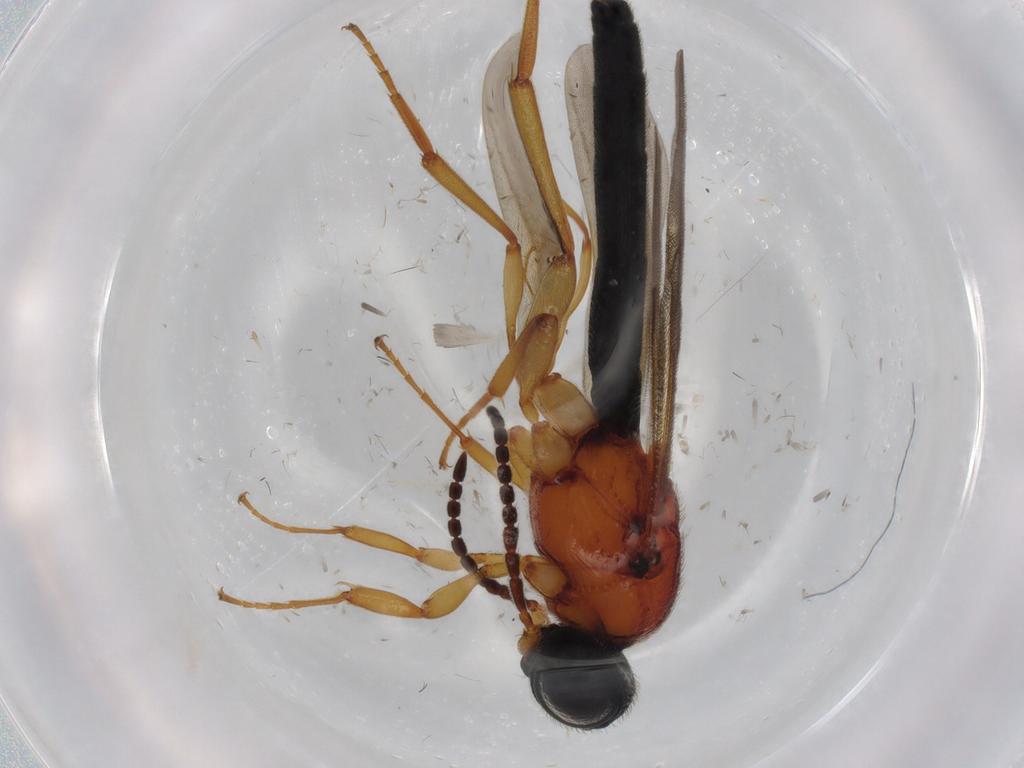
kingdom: Animalia
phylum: Arthropoda
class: Insecta
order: Hymenoptera
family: Scelionidae
